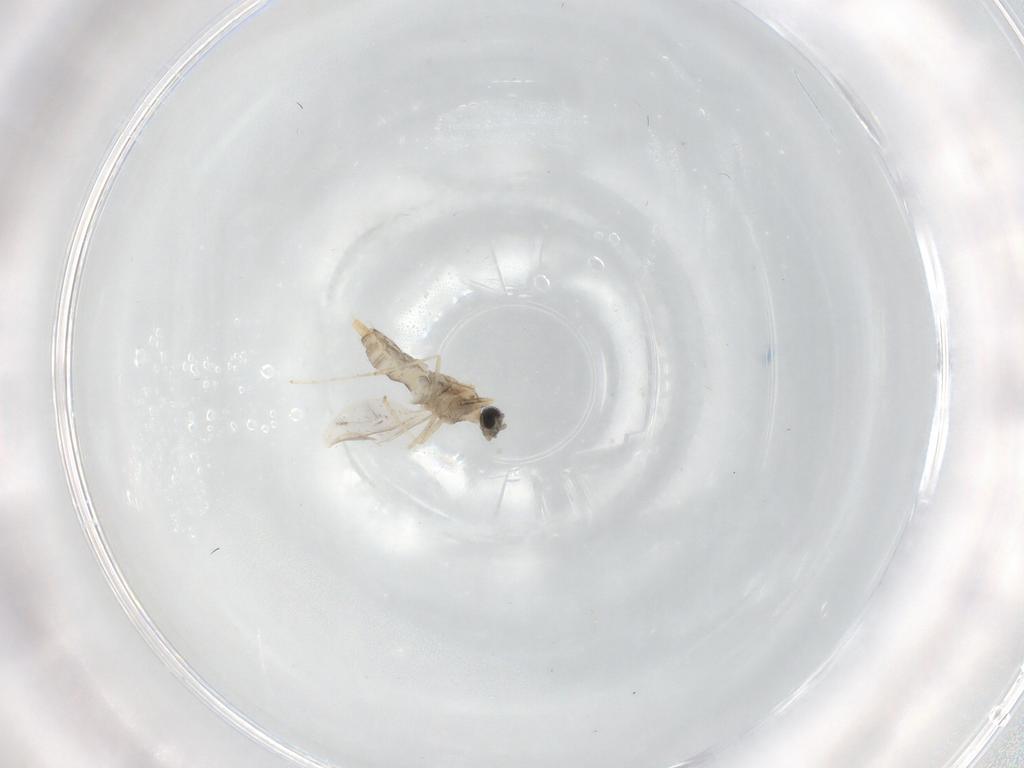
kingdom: Animalia
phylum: Arthropoda
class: Insecta
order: Diptera
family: Cecidomyiidae
